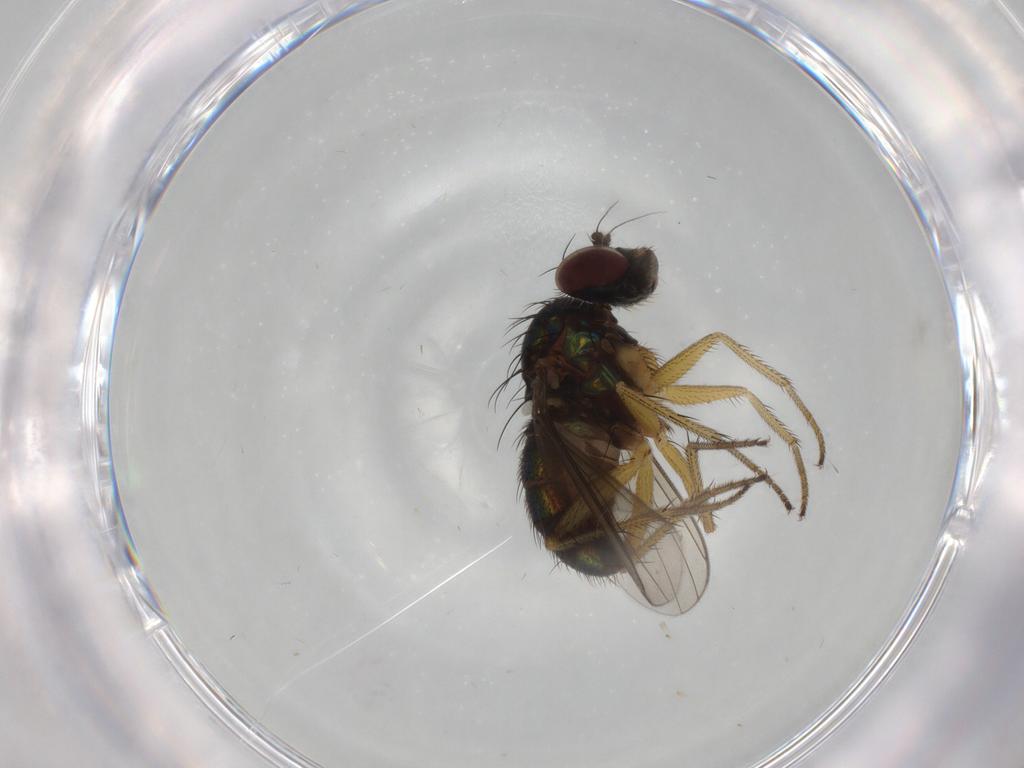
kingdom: Animalia
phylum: Arthropoda
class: Insecta
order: Diptera
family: Dolichopodidae
